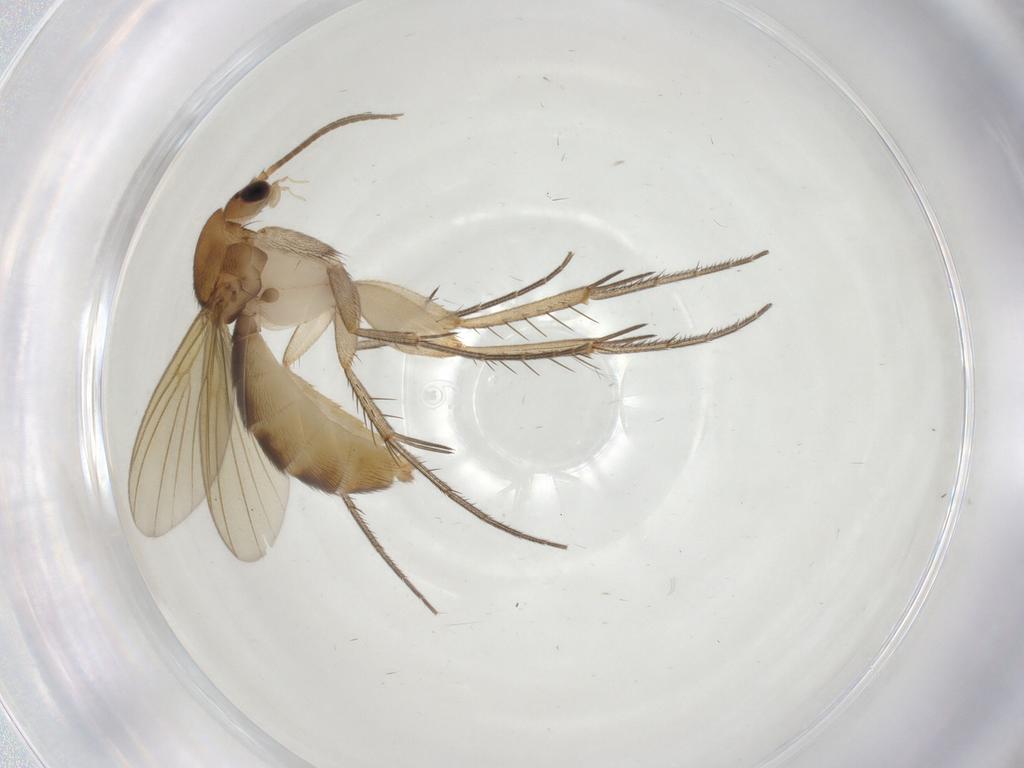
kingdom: Animalia
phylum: Arthropoda
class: Insecta
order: Diptera
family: Mycetophilidae
